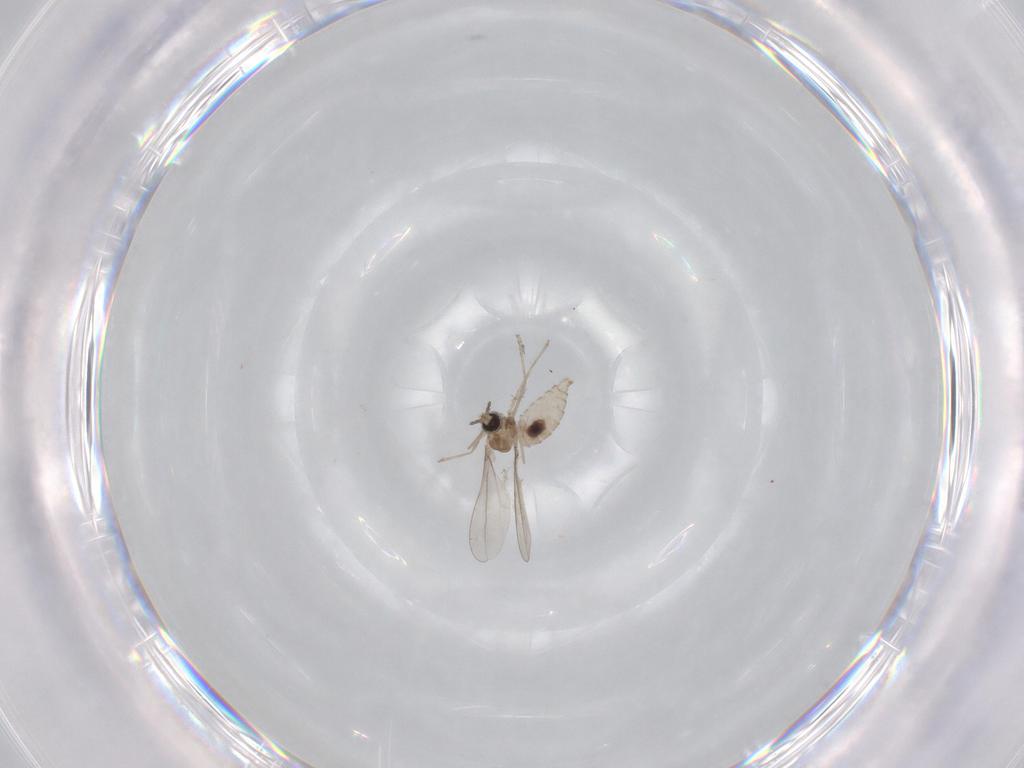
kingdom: Animalia
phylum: Arthropoda
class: Insecta
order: Diptera
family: Chironomidae
